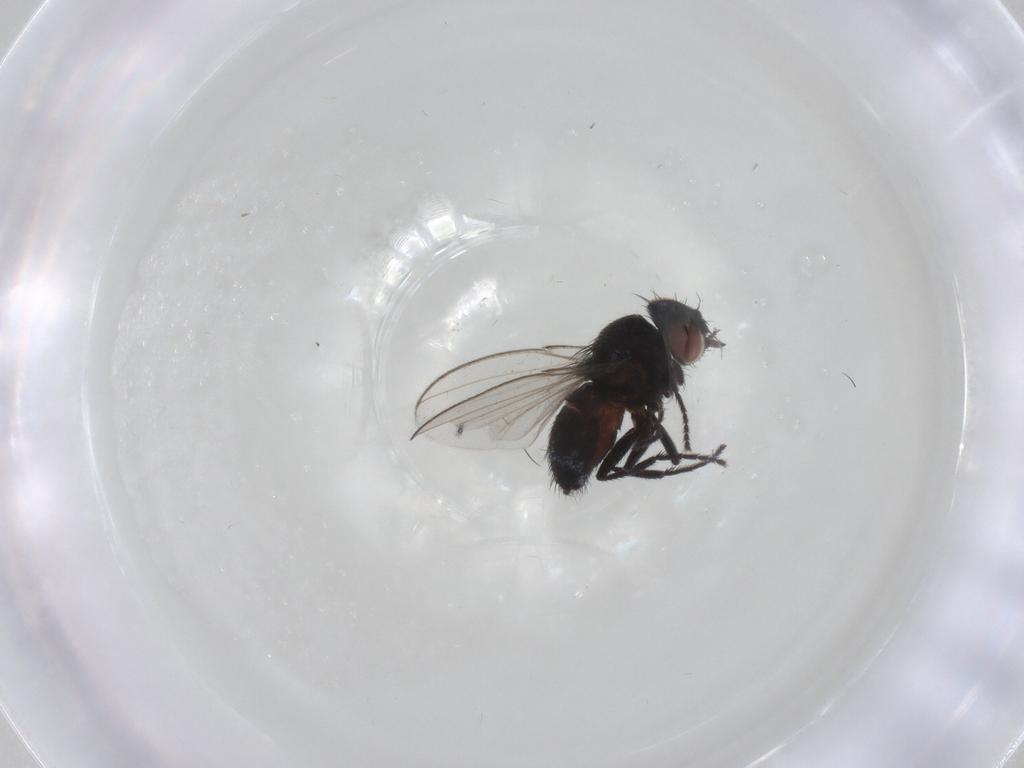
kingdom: Animalia
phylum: Arthropoda
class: Insecta
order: Diptera
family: Milichiidae
